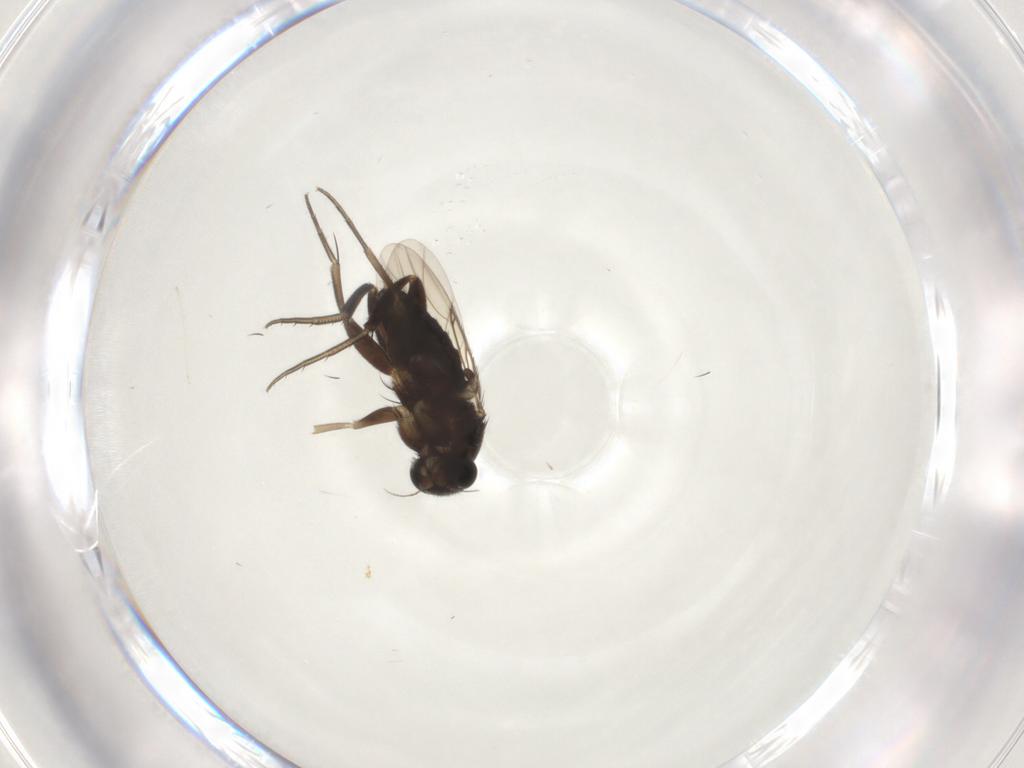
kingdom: Animalia
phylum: Arthropoda
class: Insecta
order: Diptera
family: Phoridae
